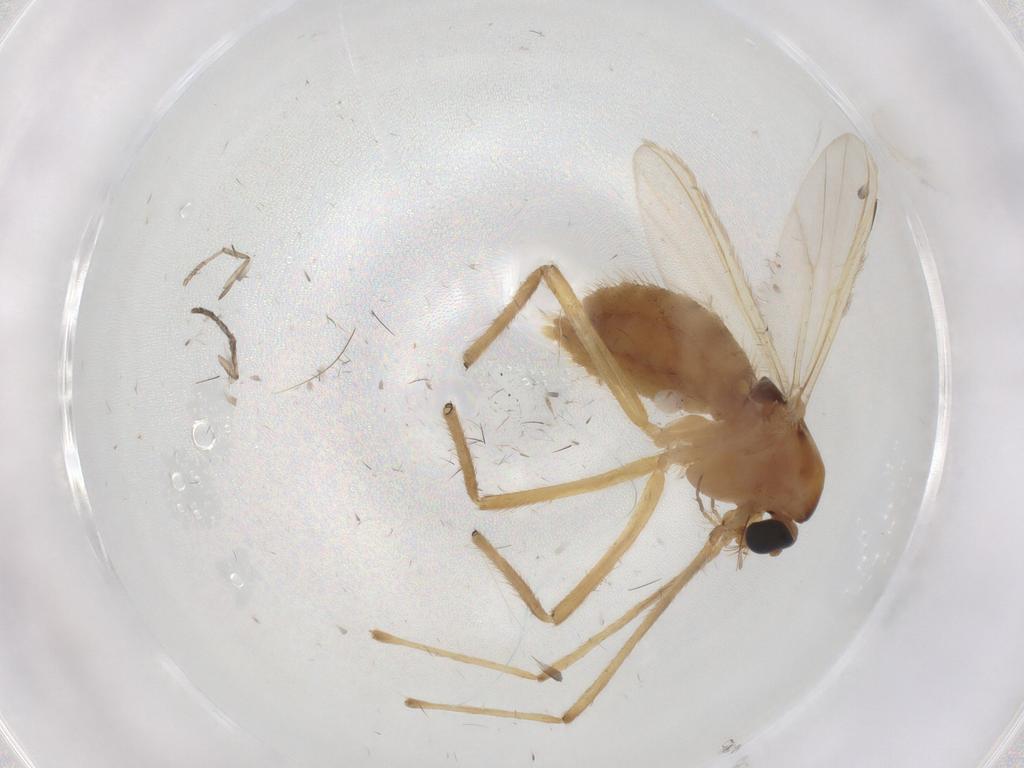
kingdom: Animalia
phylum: Arthropoda
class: Insecta
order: Diptera
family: Chironomidae
